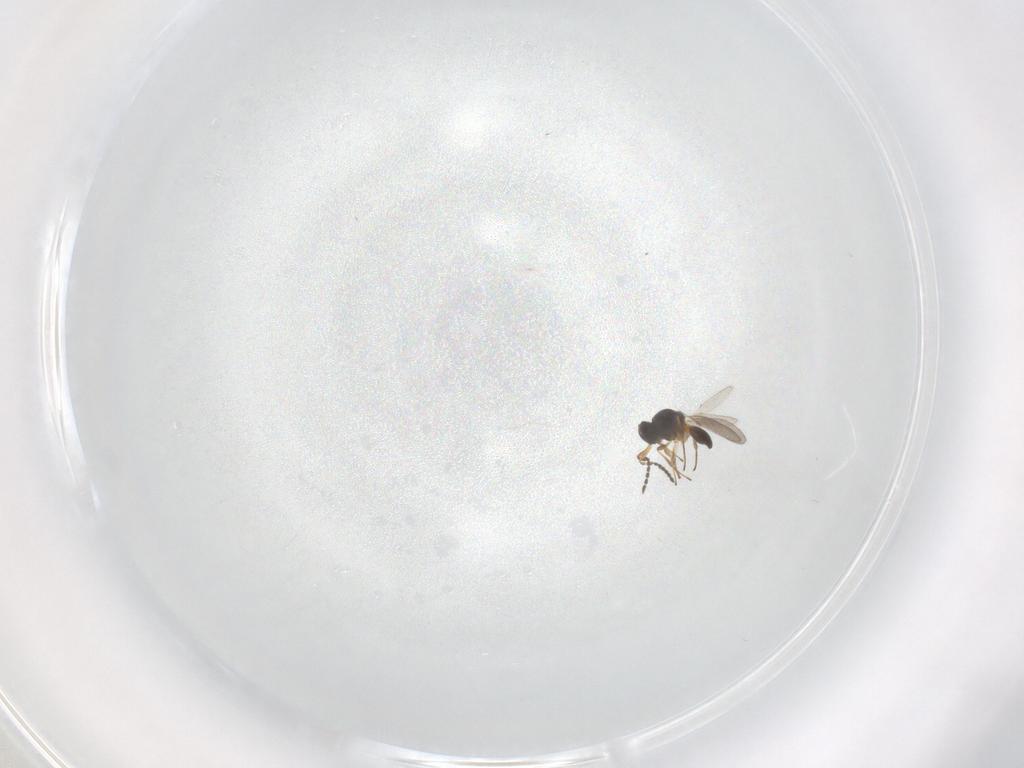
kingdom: Animalia
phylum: Arthropoda
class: Insecta
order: Hymenoptera
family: Platygastridae
